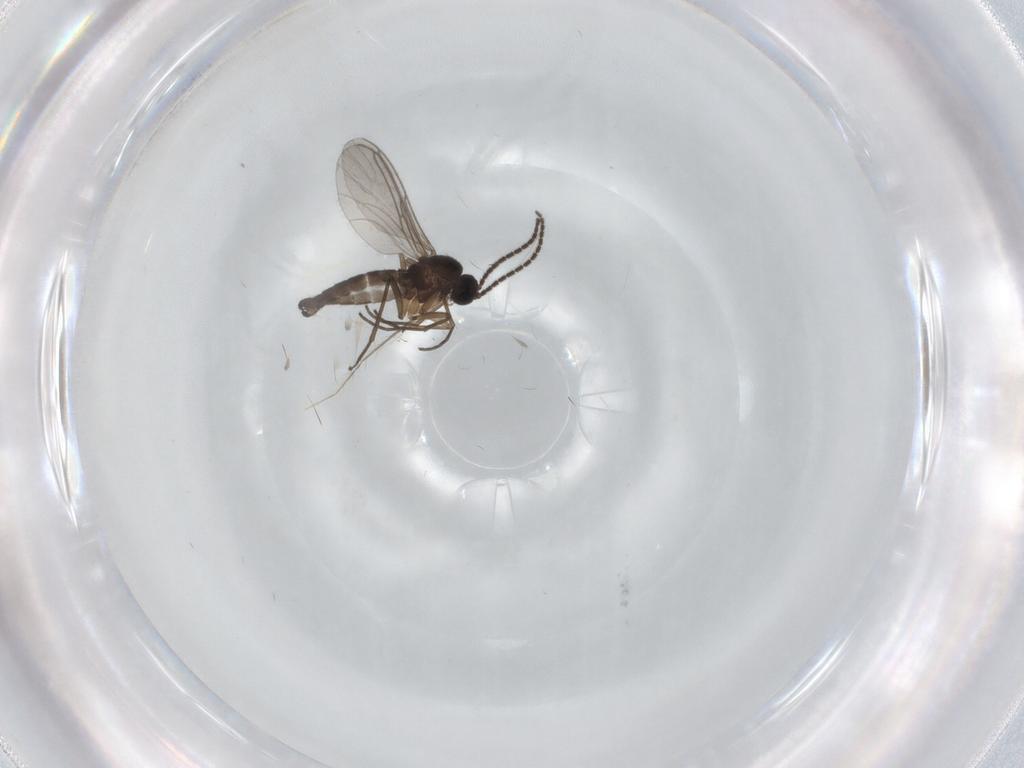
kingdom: Animalia
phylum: Arthropoda
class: Insecta
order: Diptera
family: Sciaridae
